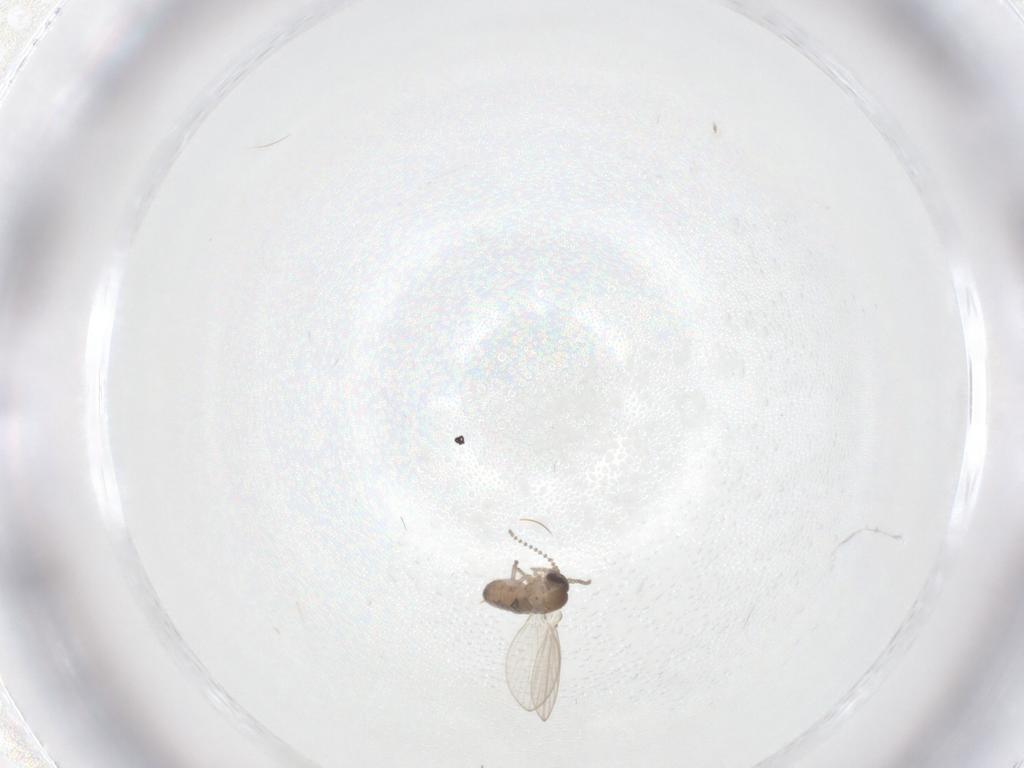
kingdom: Animalia
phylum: Arthropoda
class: Insecta
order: Diptera
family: Psychodidae
